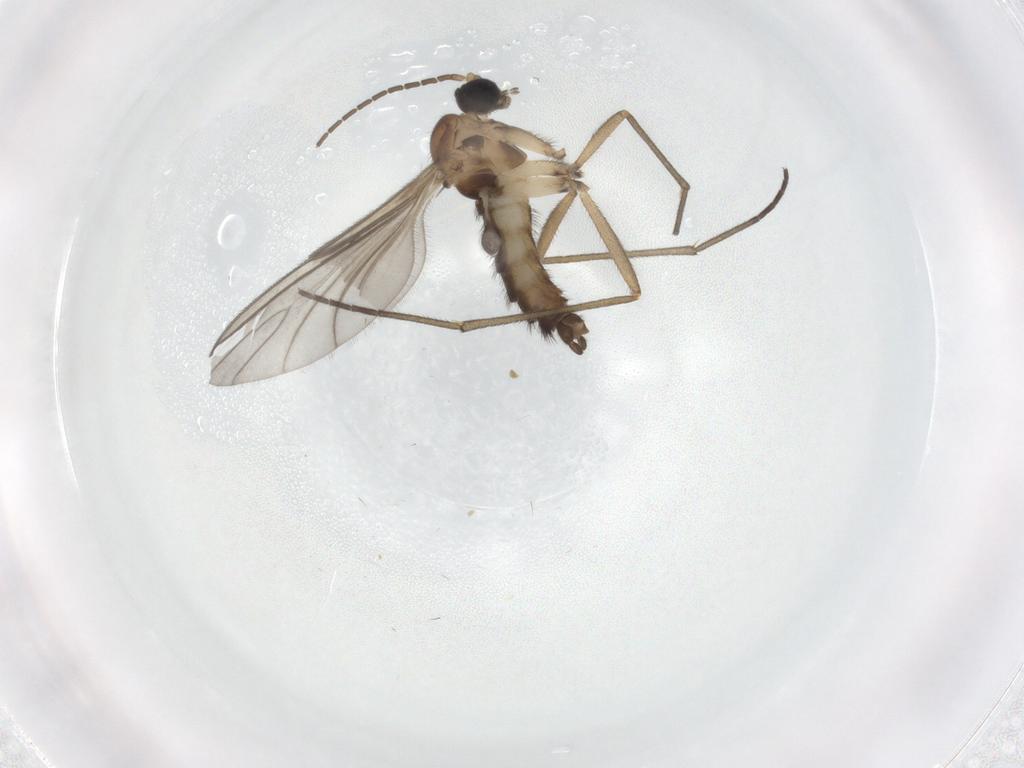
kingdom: Animalia
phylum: Arthropoda
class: Insecta
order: Diptera
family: Sciaridae
